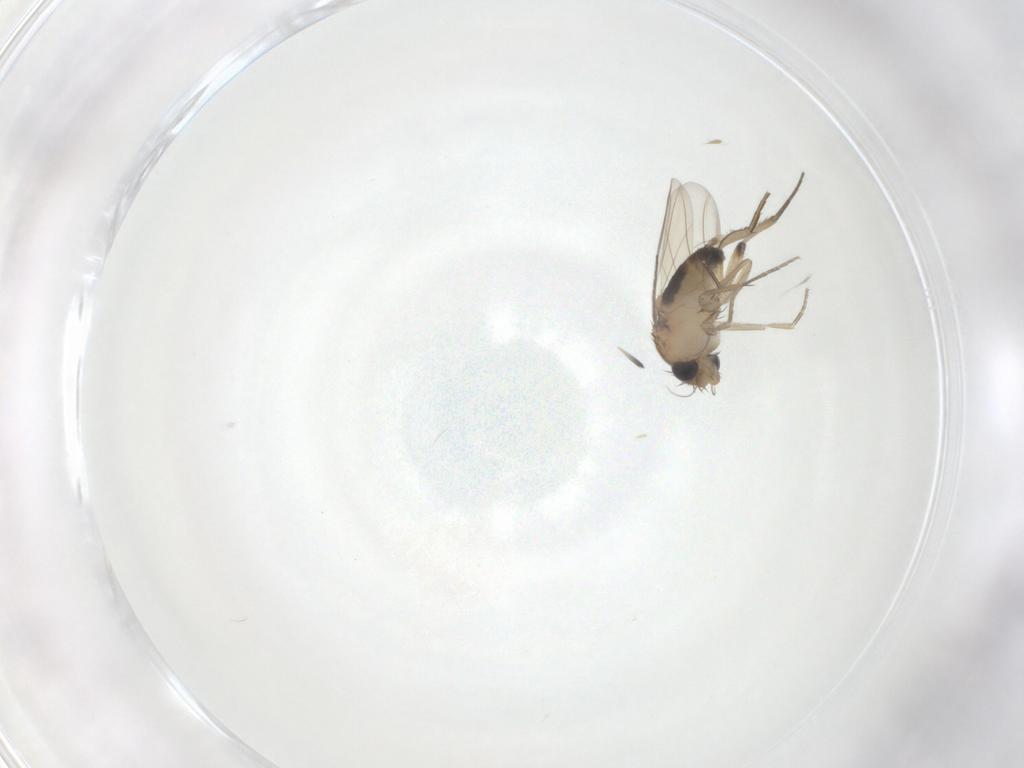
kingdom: Animalia
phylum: Arthropoda
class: Insecta
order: Diptera
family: Phoridae
